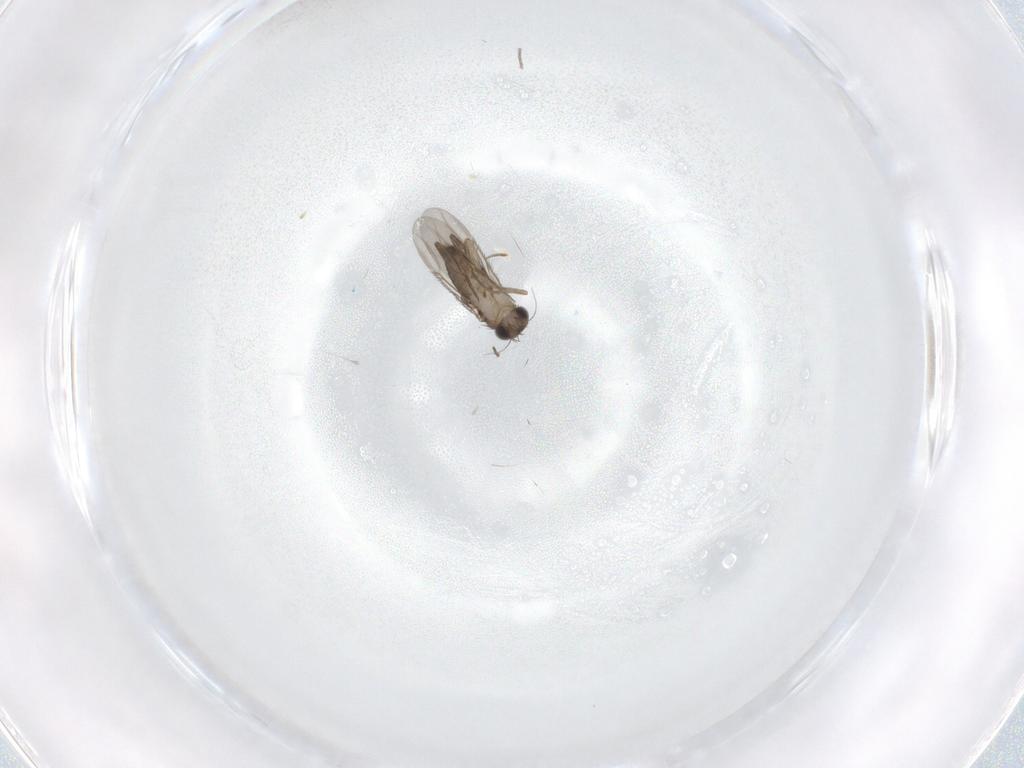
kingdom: Animalia
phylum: Arthropoda
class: Insecta
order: Diptera
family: Phoridae
